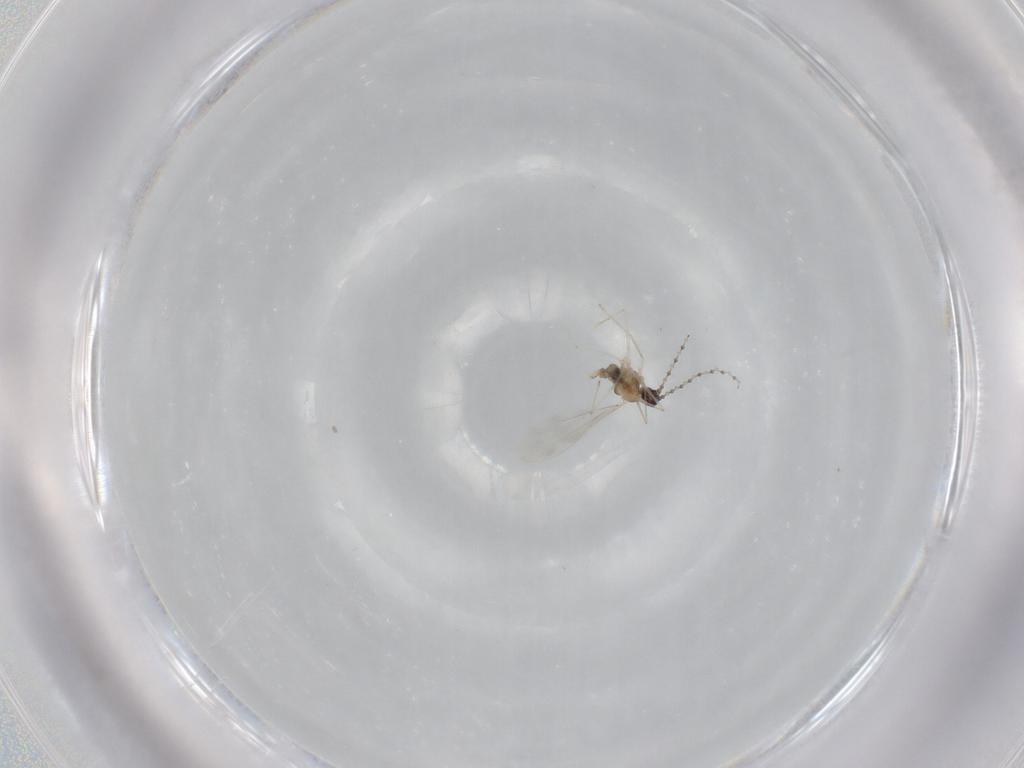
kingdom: Animalia
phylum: Arthropoda
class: Insecta
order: Diptera
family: Cecidomyiidae
